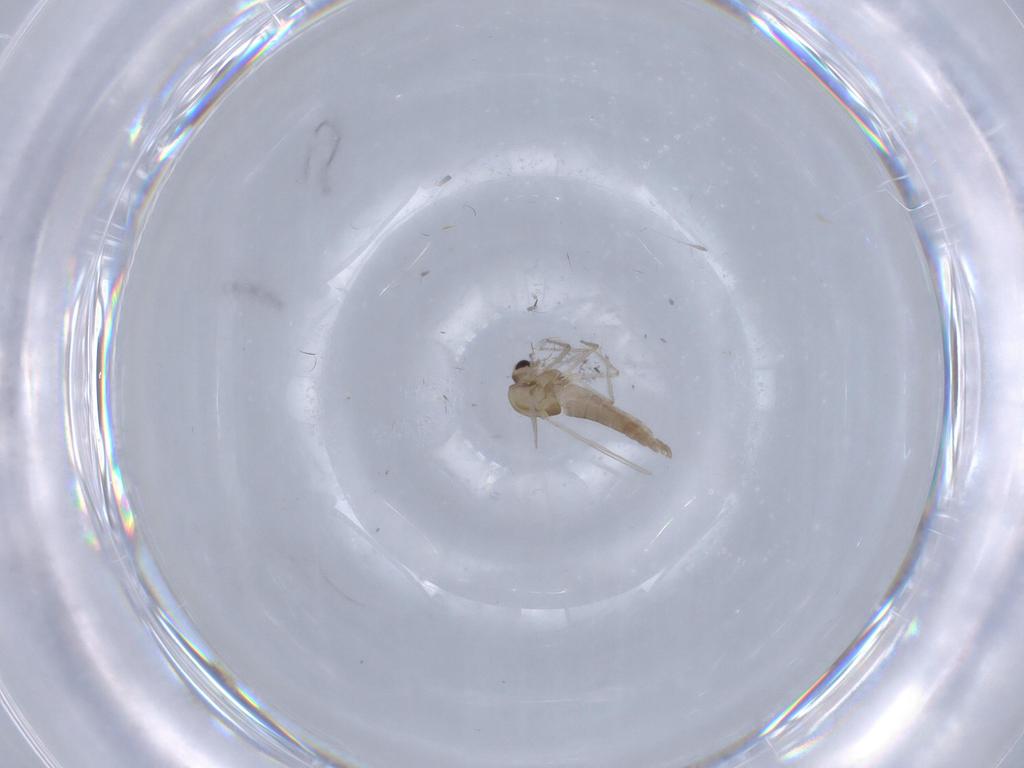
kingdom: Animalia
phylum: Arthropoda
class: Insecta
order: Diptera
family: Chironomidae
